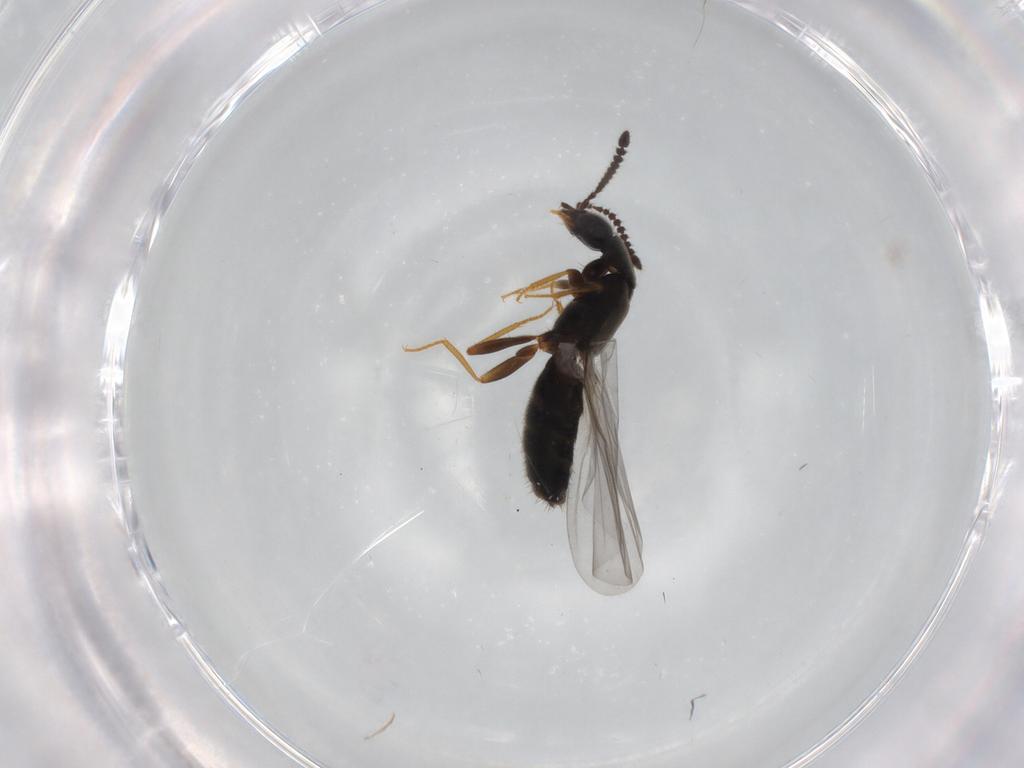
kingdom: Animalia
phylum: Arthropoda
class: Insecta
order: Coleoptera
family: Staphylinidae
